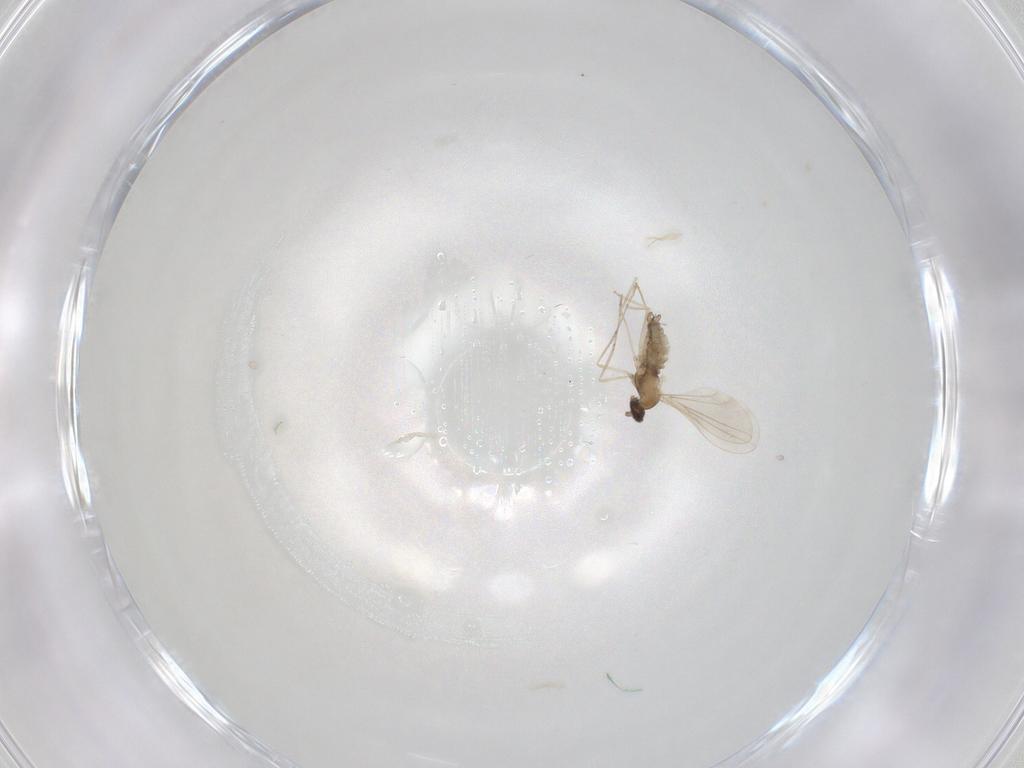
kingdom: Animalia
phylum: Arthropoda
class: Insecta
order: Diptera
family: Cecidomyiidae
